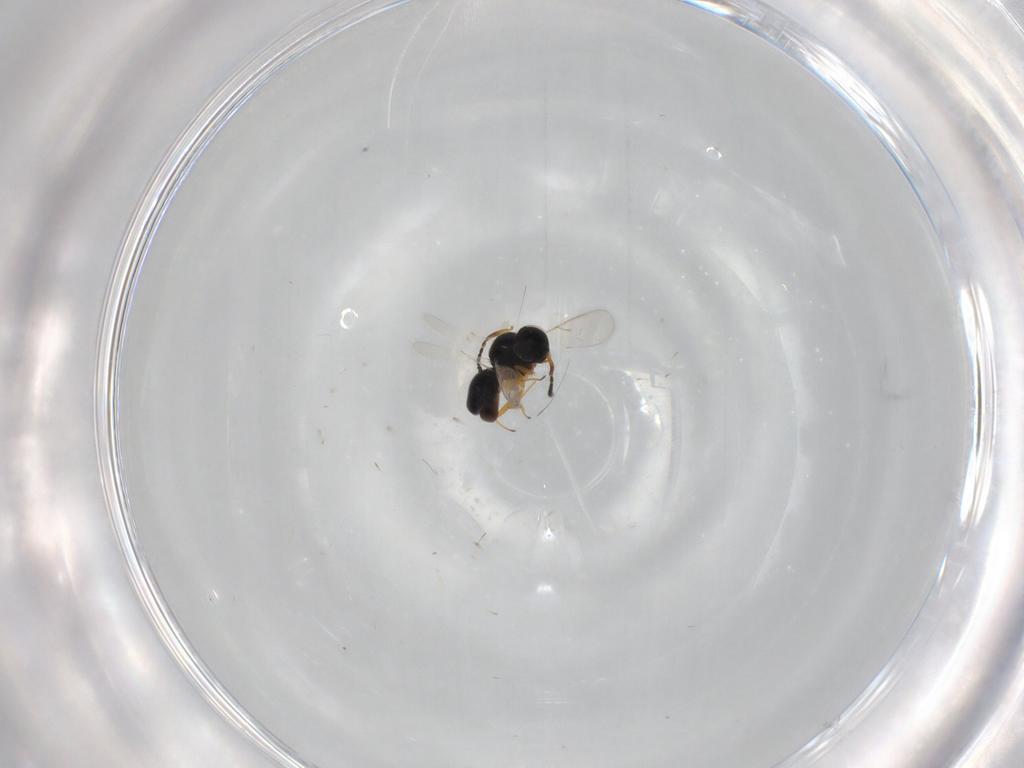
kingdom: Animalia
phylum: Arthropoda
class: Insecta
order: Hymenoptera
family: Scelionidae
